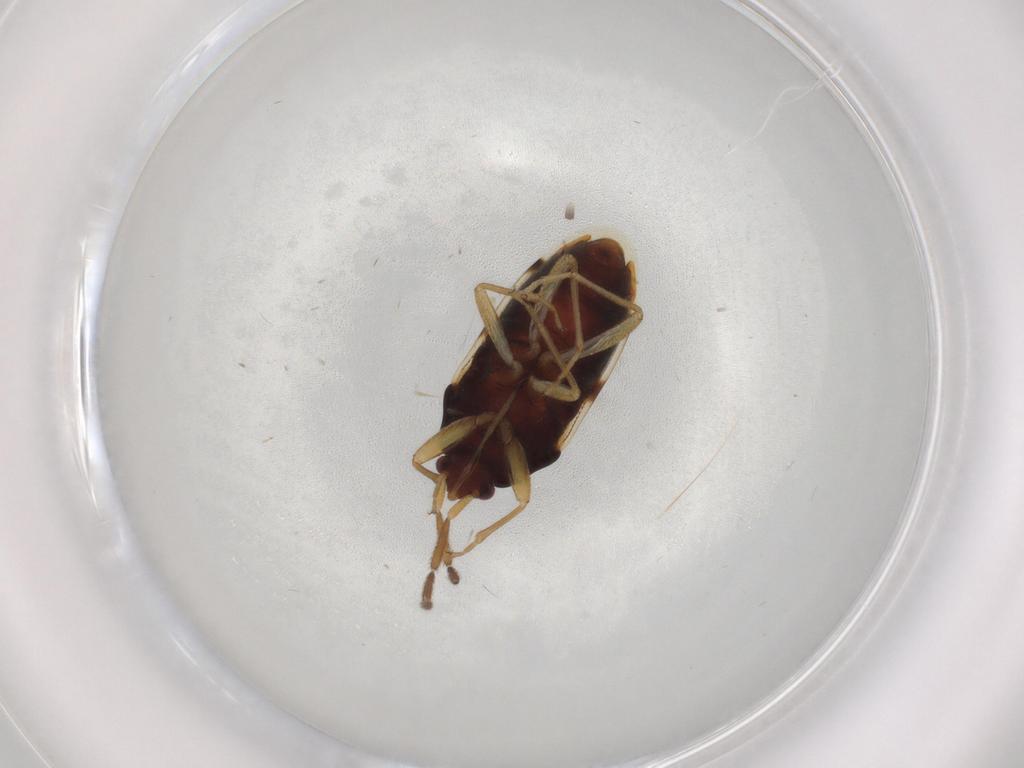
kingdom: Animalia
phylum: Arthropoda
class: Insecta
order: Hemiptera
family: Rhyparochromidae
